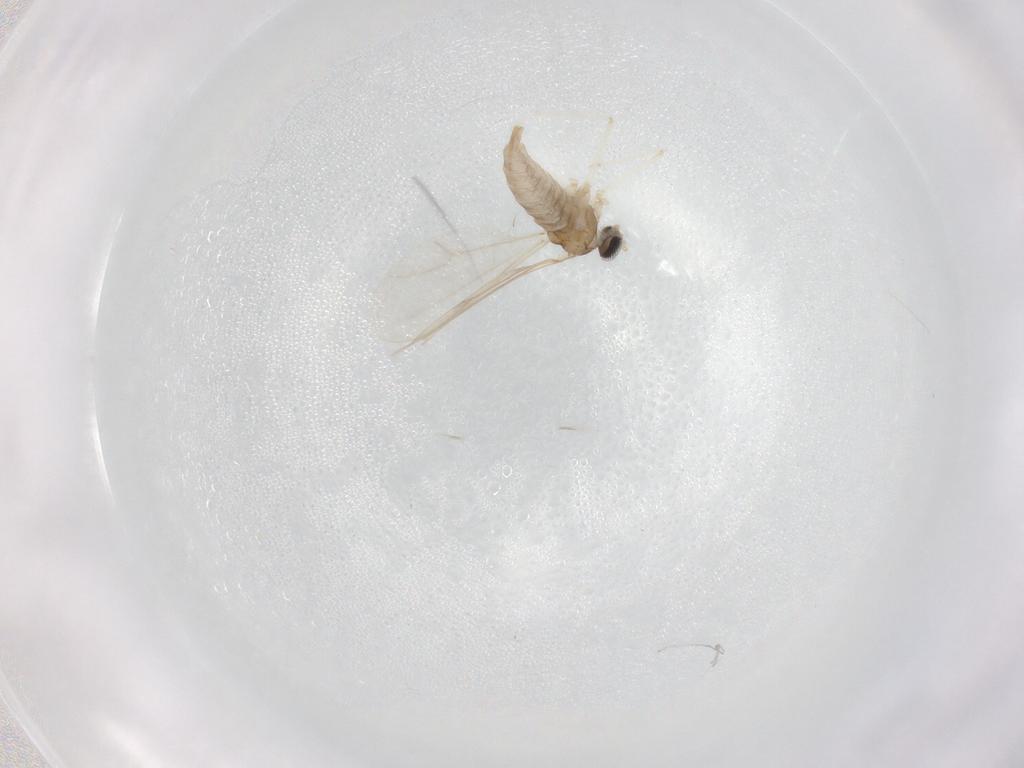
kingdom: Animalia
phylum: Arthropoda
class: Insecta
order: Diptera
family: Cecidomyiidae
